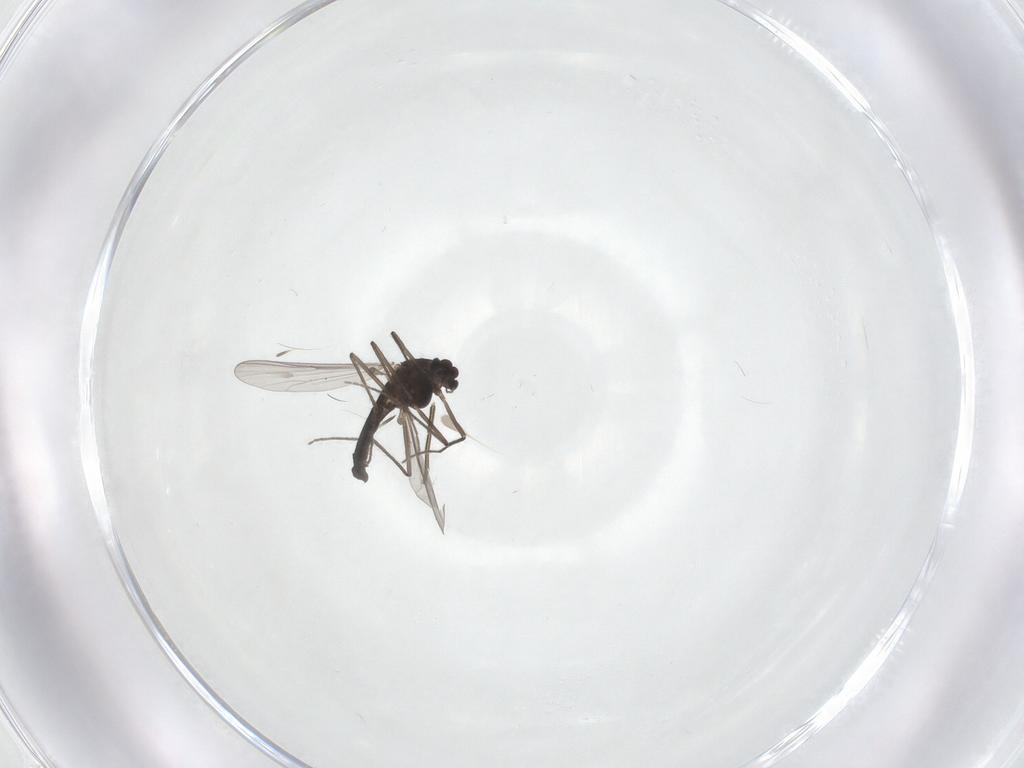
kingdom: Animalia
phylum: Arthropoda
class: Insecta
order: Diptera
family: Chironomidae
